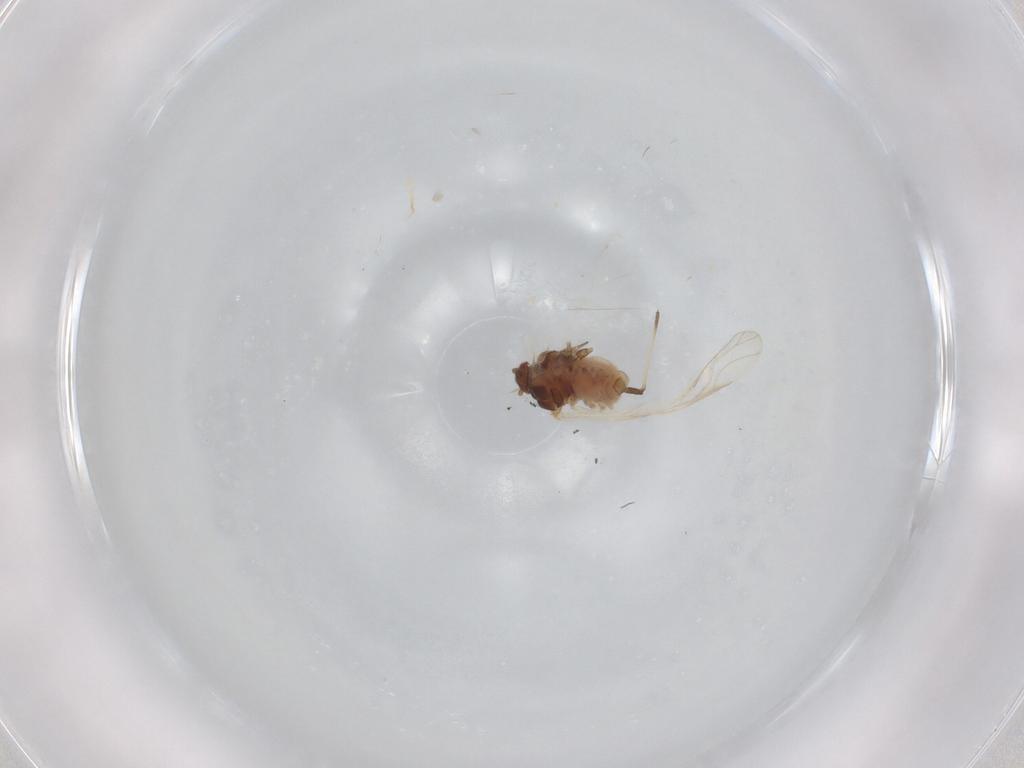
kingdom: Animalia
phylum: Arthropoda
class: Insecta
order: Hemiptera
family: Aphididae
